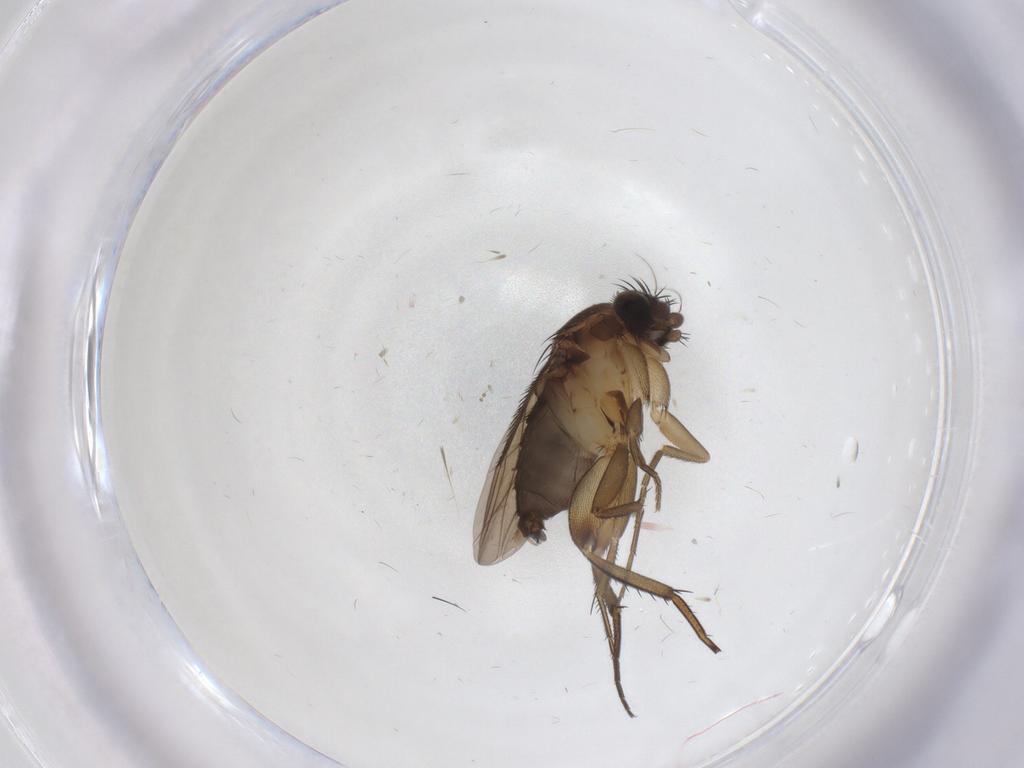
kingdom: Animalia
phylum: Arthropoda
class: Insecta
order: Diptera
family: Phoridae
